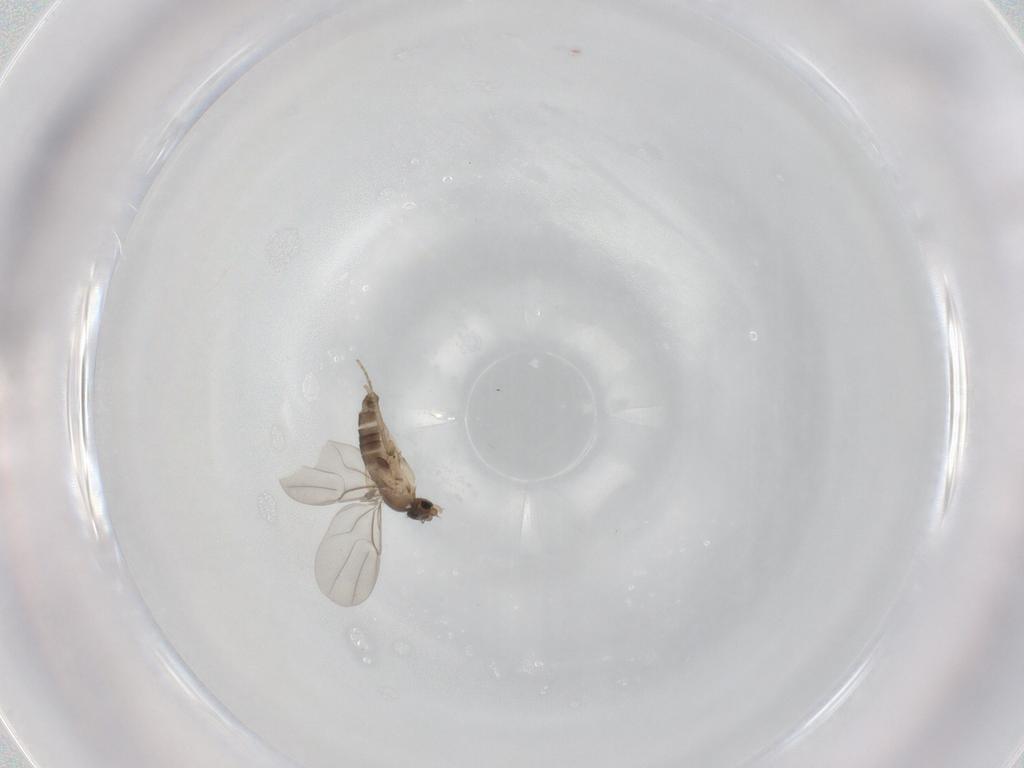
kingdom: Animalia
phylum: Arthropoda
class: Insecta
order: Diptera
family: Phoridae
